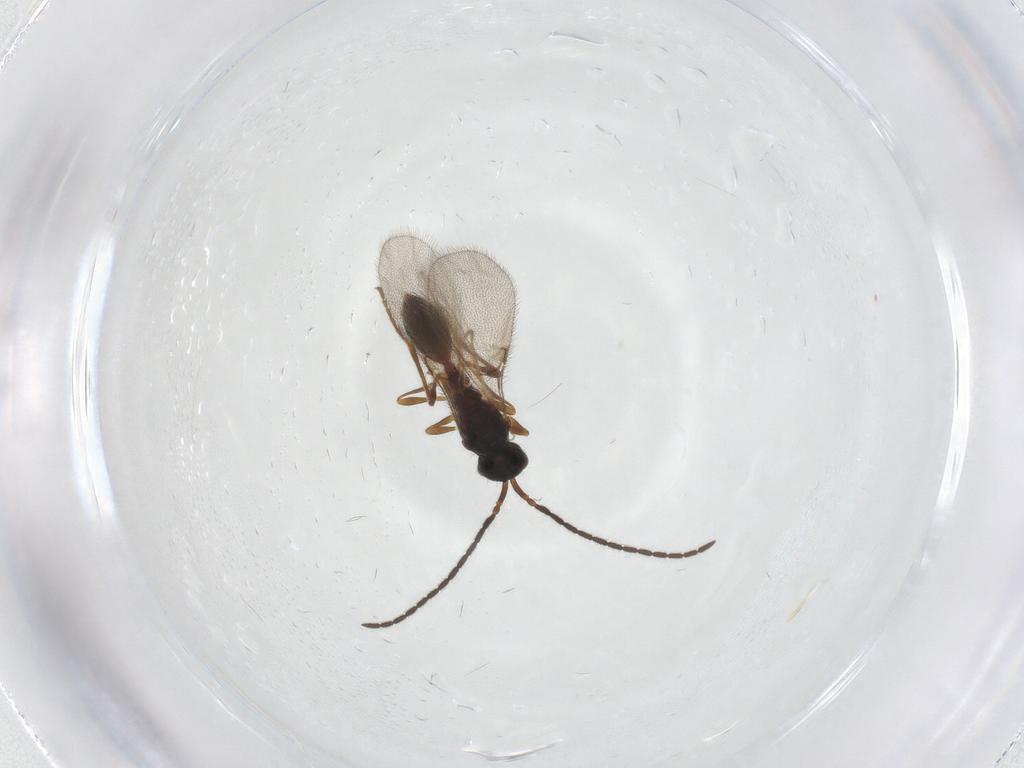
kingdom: Animalia
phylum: Arthropoda
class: Insecta
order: Hymenoptera
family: Diapriidae
